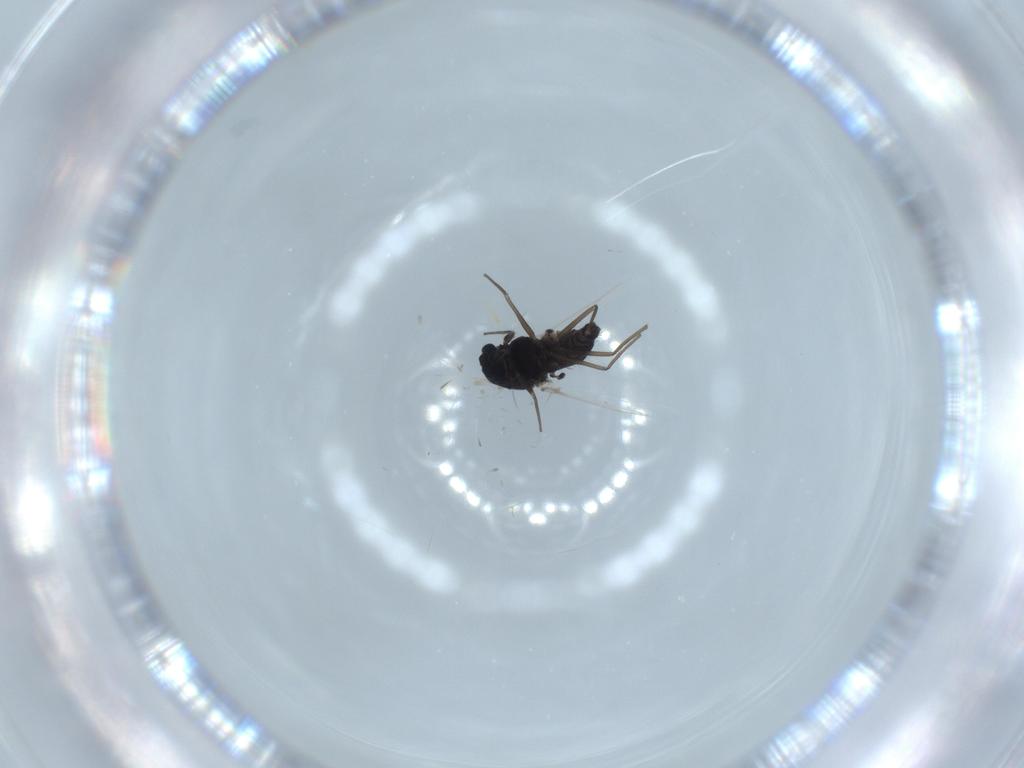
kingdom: Animalia
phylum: Arthropoda
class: Insecta
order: Diptera
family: Chironomidae
